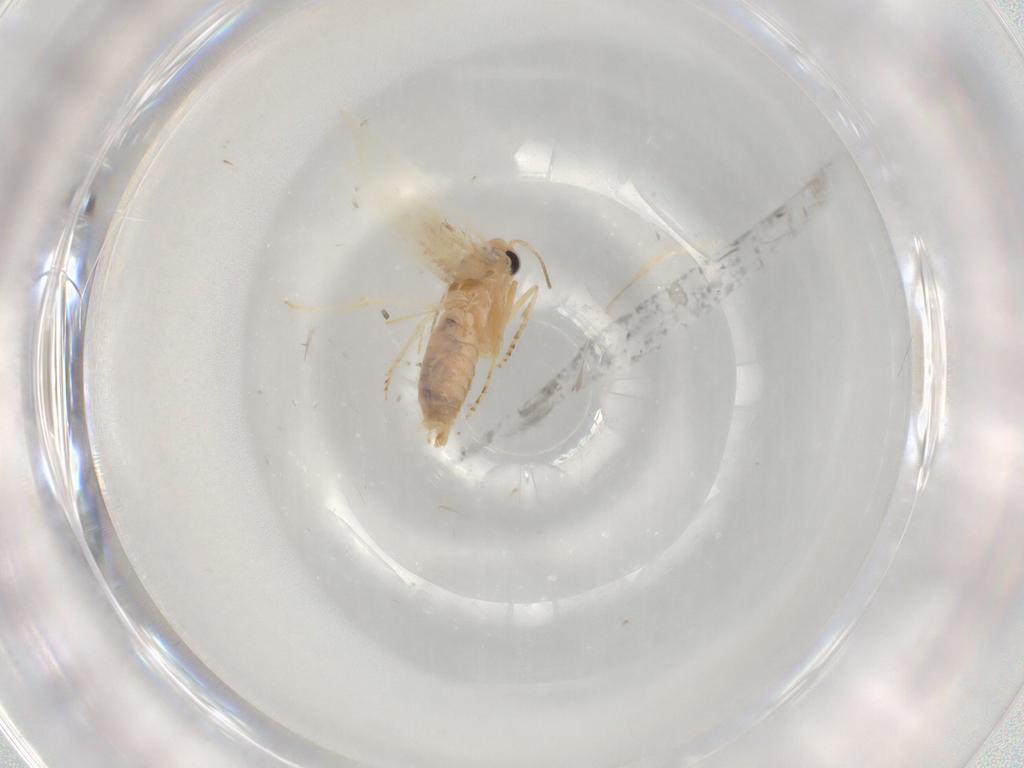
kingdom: Animalia
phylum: Arthropoda
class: Insecta
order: Lepidoptera
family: Bucculatricidae
